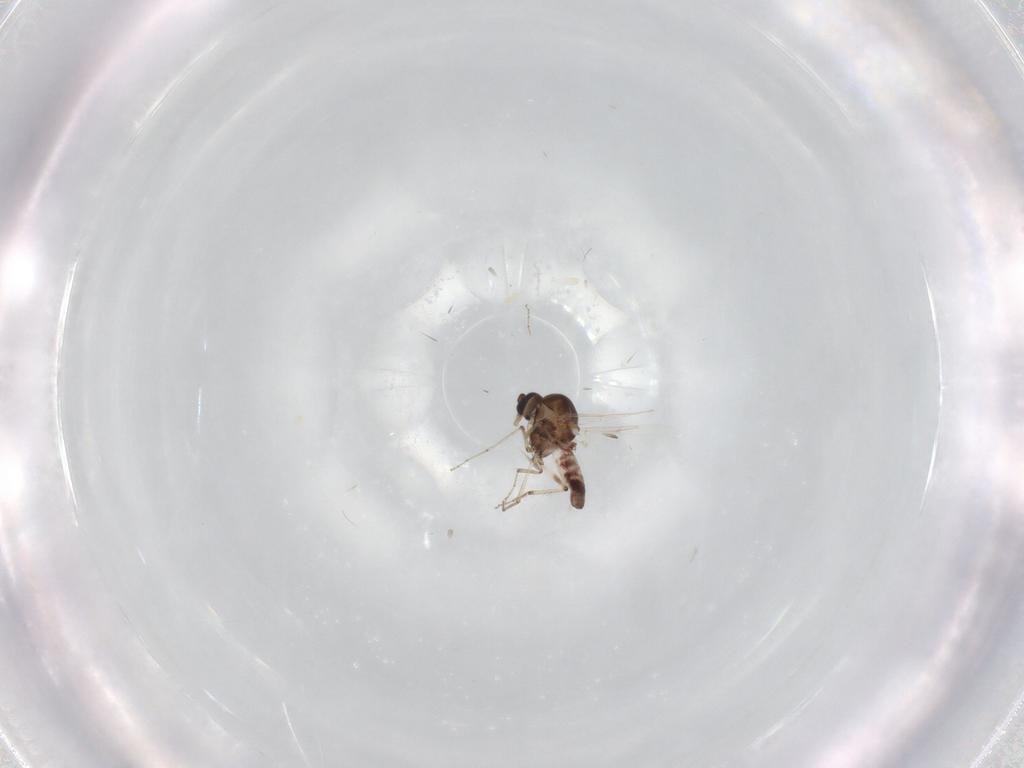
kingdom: Animalia
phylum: Arthropoda
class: Insecta
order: Diptera
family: Ceratopogonidae
